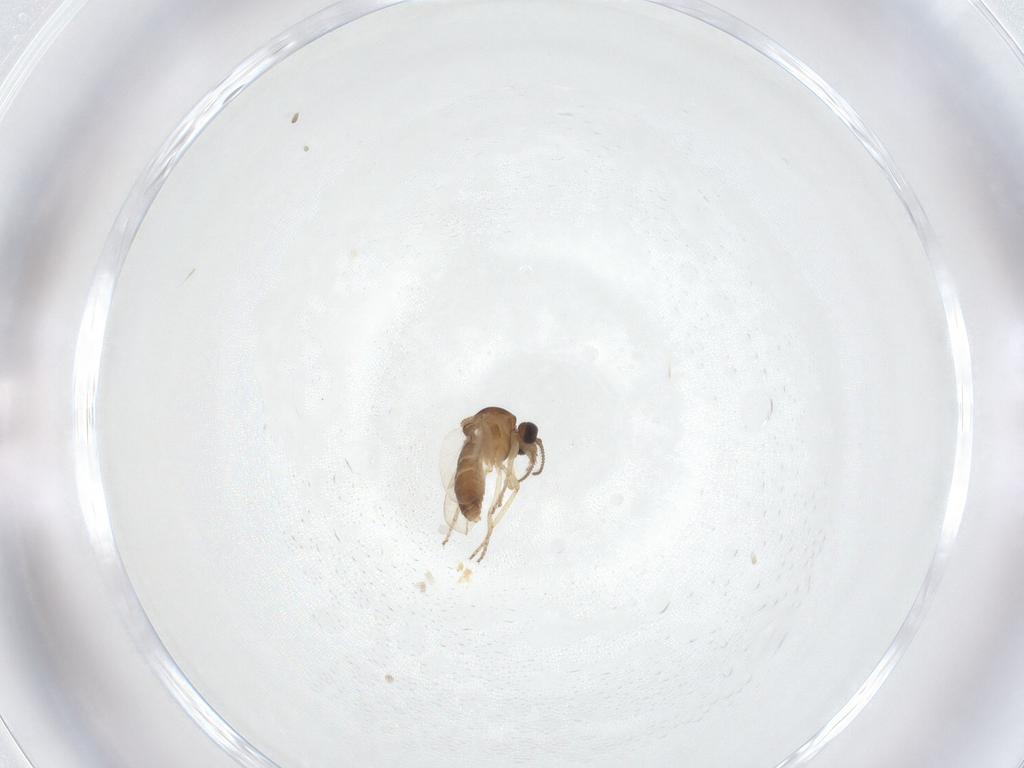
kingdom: Animalia
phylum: Arthropoda
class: Insecta
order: Diptera
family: Ceratopogonidae
